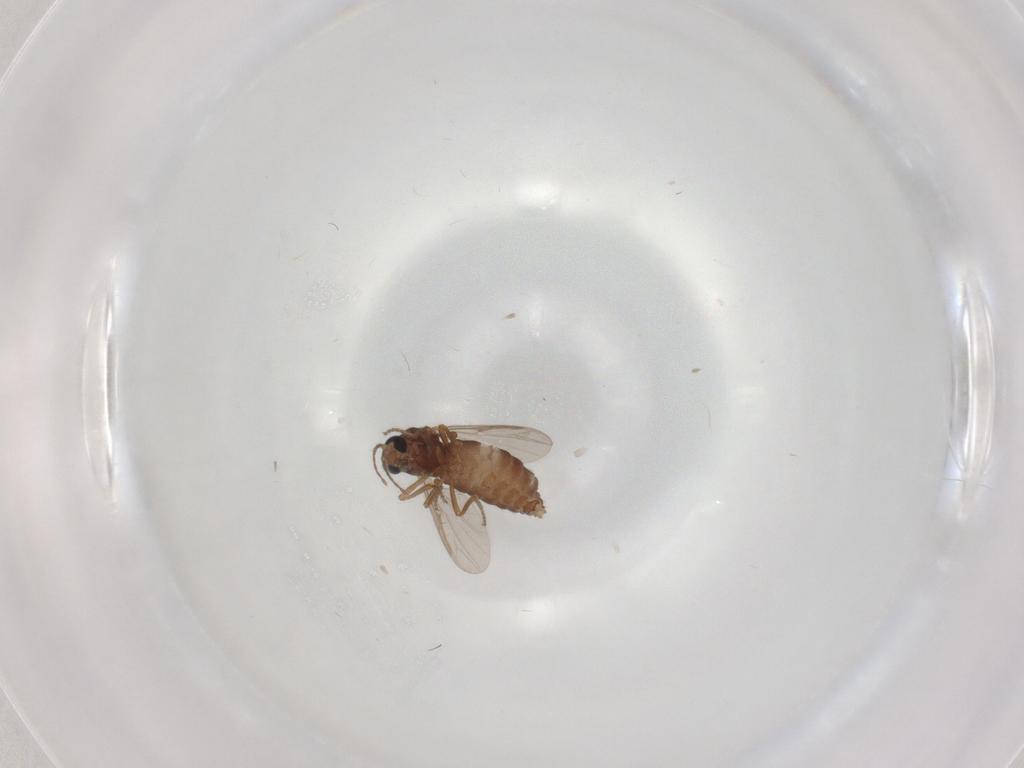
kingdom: Animalia
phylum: Arthropoda
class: Insecta
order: Diptera
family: Ceratopogonidae
